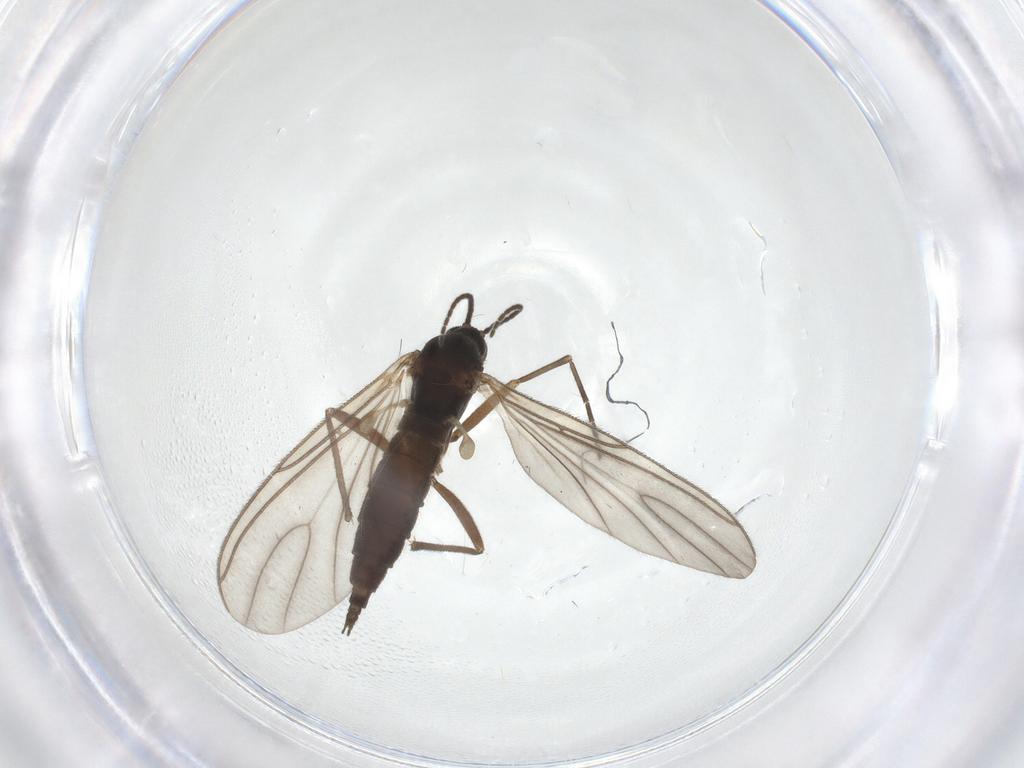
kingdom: Animalia
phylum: Arthropoda
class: Insecta
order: Diptera
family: Sciaridae
